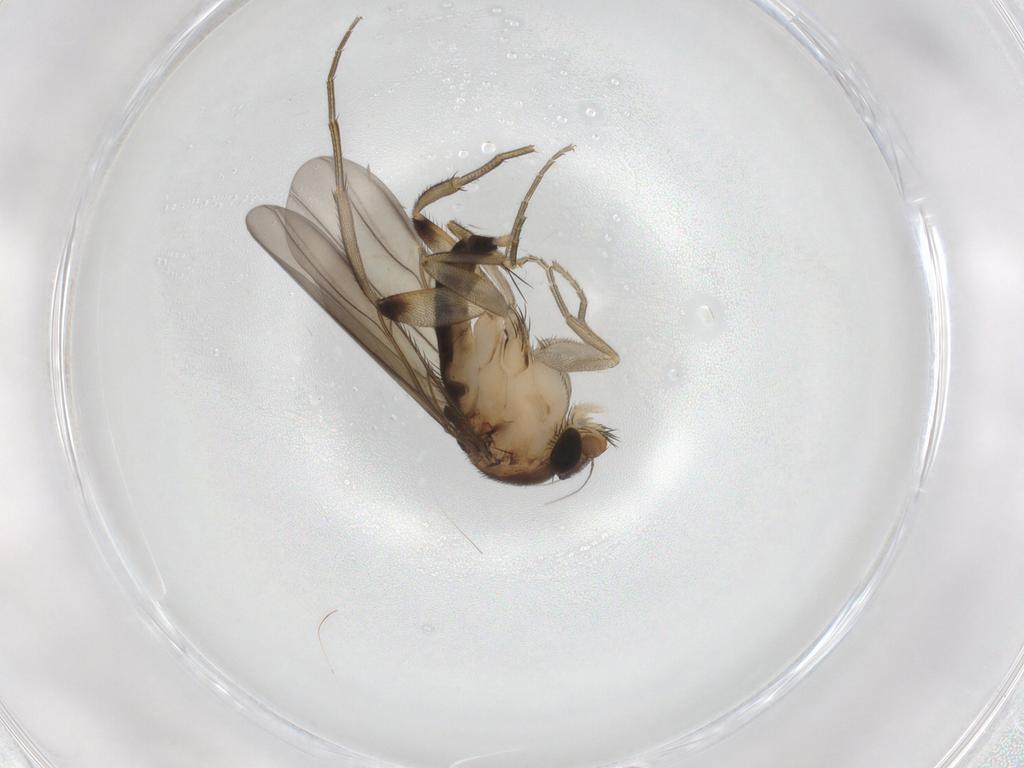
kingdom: Animalia
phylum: Arthropoda
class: Insecta
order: Diptera
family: Phoridae
